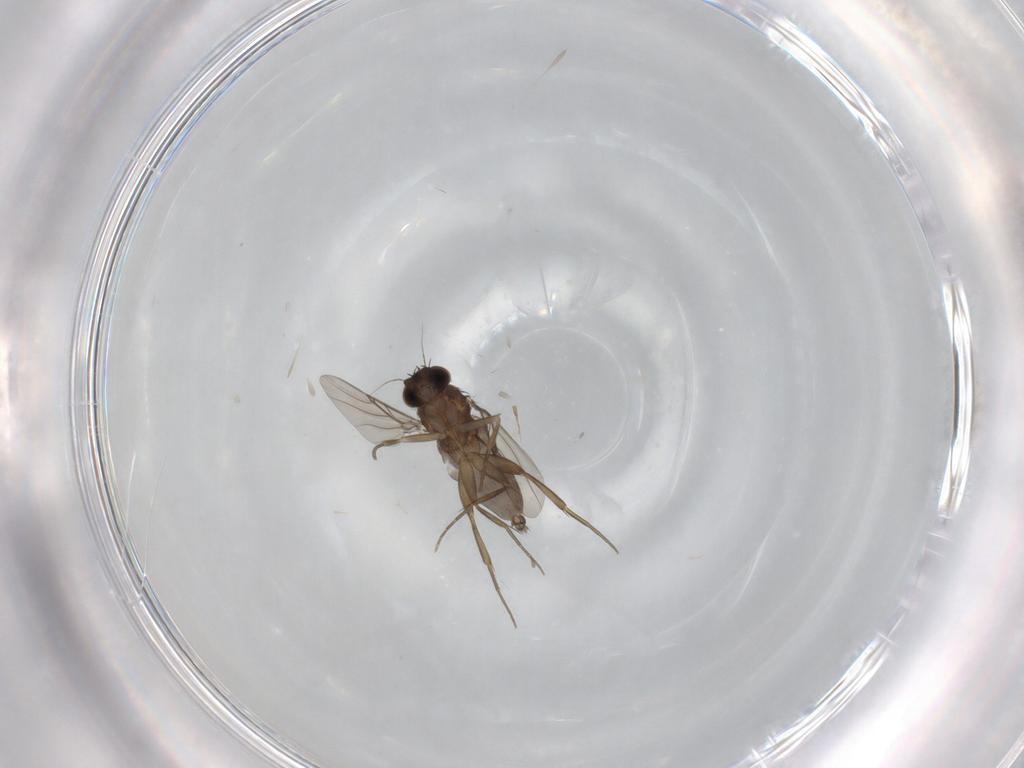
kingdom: Animalia
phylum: Arthropoda
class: Insecta
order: Diptera
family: Phoridae
